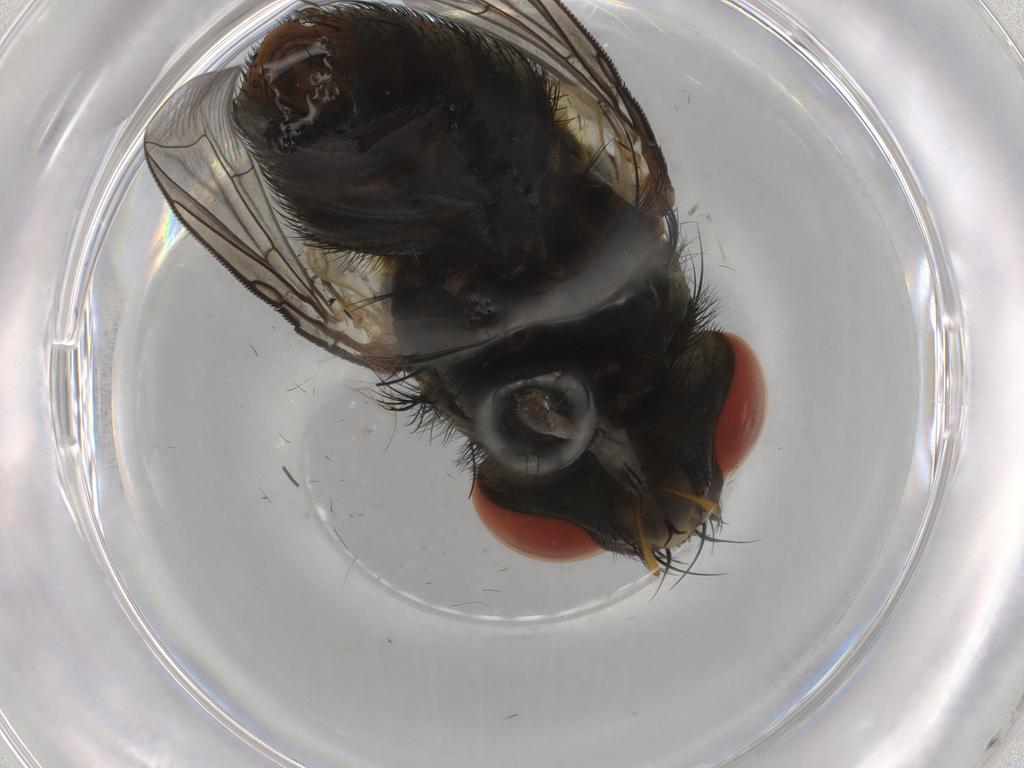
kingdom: Animalia
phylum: Arthropoda
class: Insecta
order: Diptera
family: Sarcophagidae
